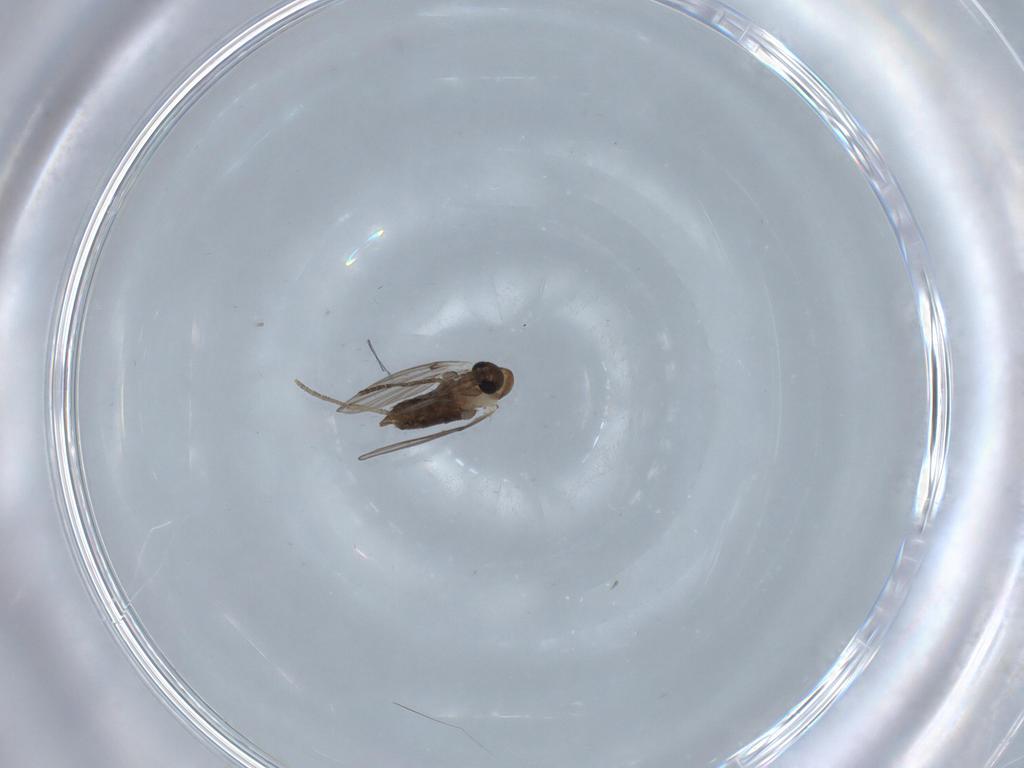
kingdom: Animalia
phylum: Arthropoda
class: Insecta
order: Diptera
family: Psychodidae
